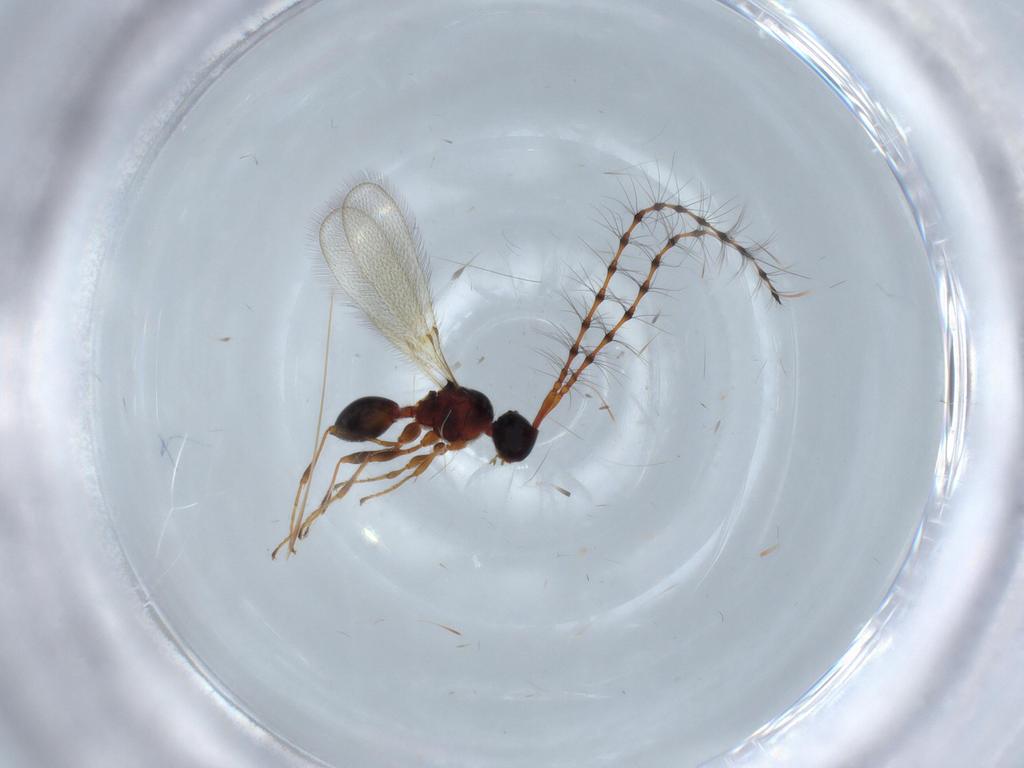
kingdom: Animalia
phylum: Arthropoda
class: Insecta
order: Hymenoptera
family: Diapriidae
